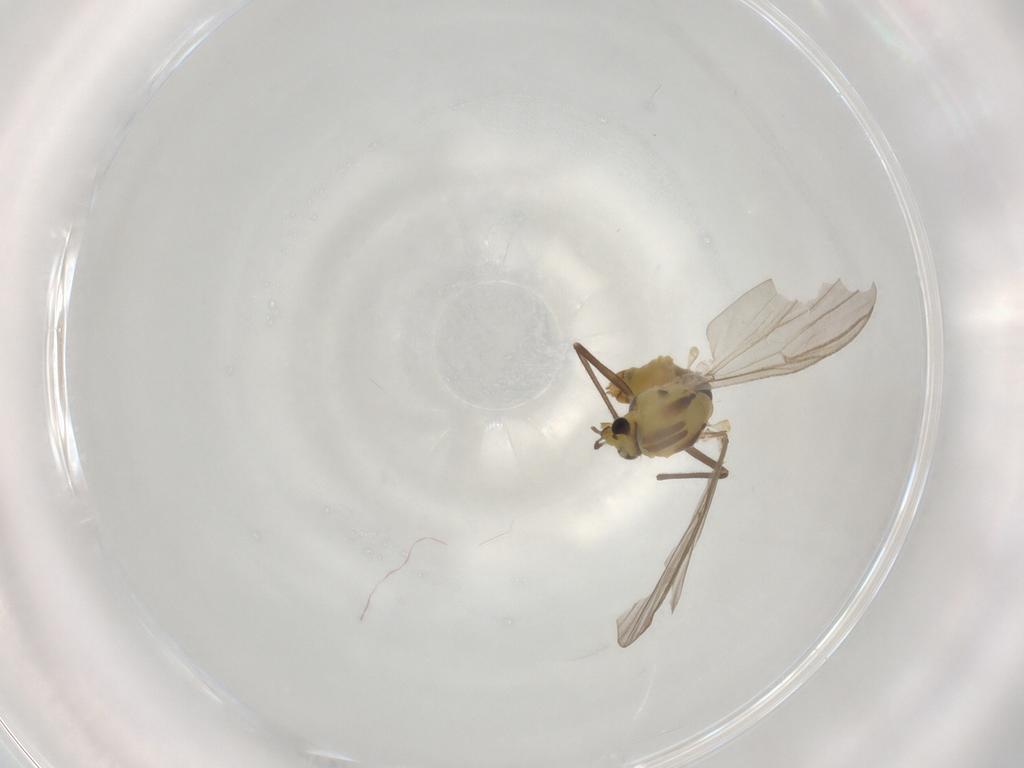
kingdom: Animalia
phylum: Arthropoda
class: Insecta
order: Diptera
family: Chironomidae
